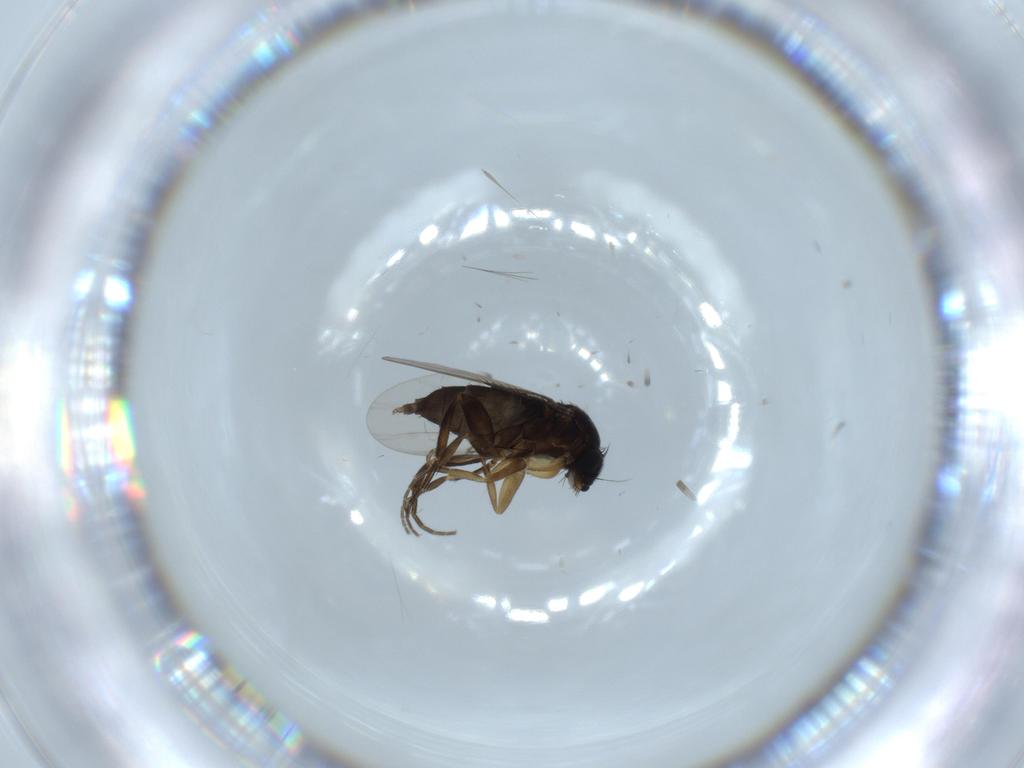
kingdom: Animalia
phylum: Arthropoda
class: Insecta
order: Diptera
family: Phoridae
